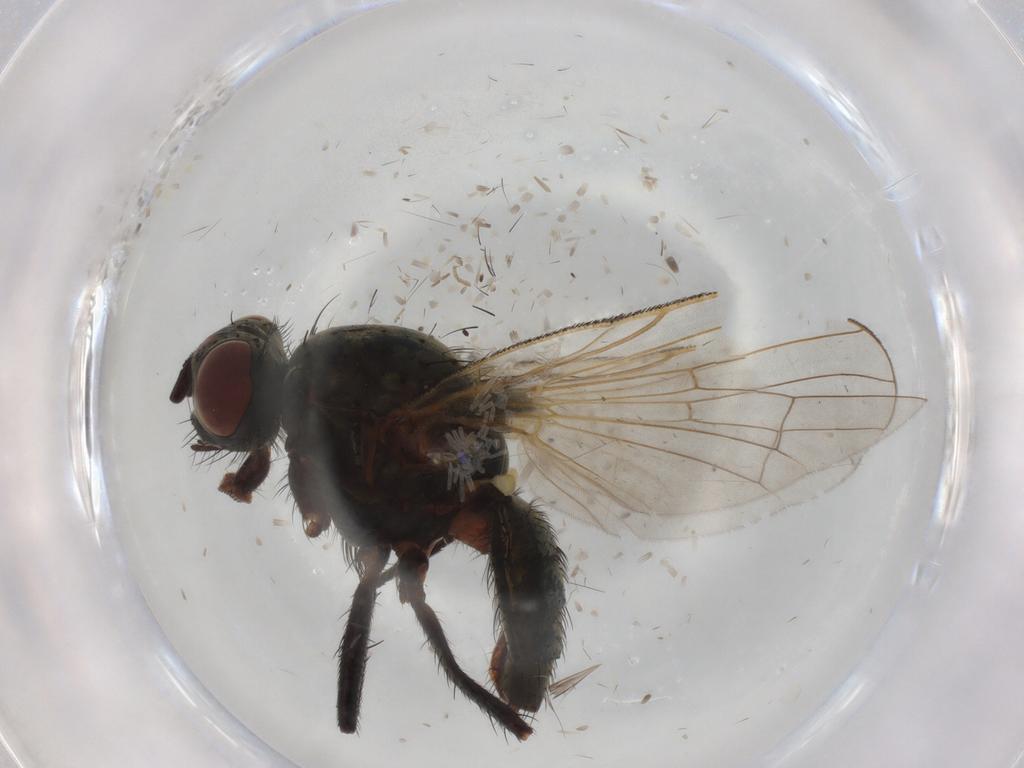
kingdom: Animalia
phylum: Arthropoda
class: Insecta
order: Diptera
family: Anthomyiidae
